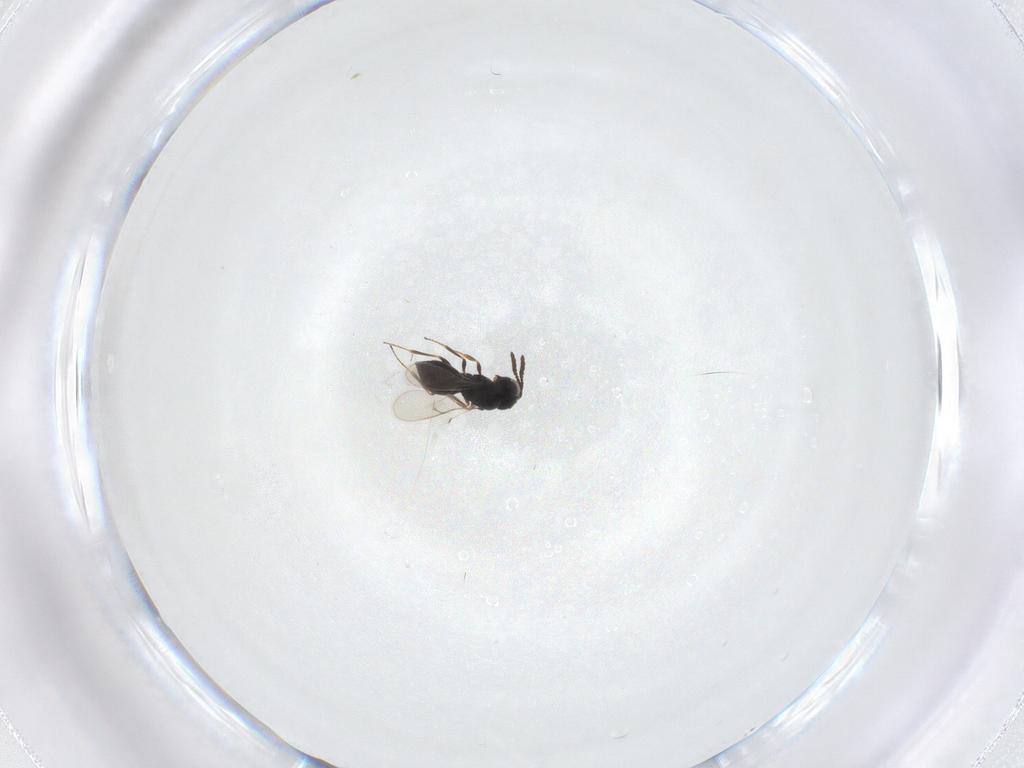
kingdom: Animalia
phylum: Arthropoda
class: Insecta
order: Hymenoptera
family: Scelionidae
